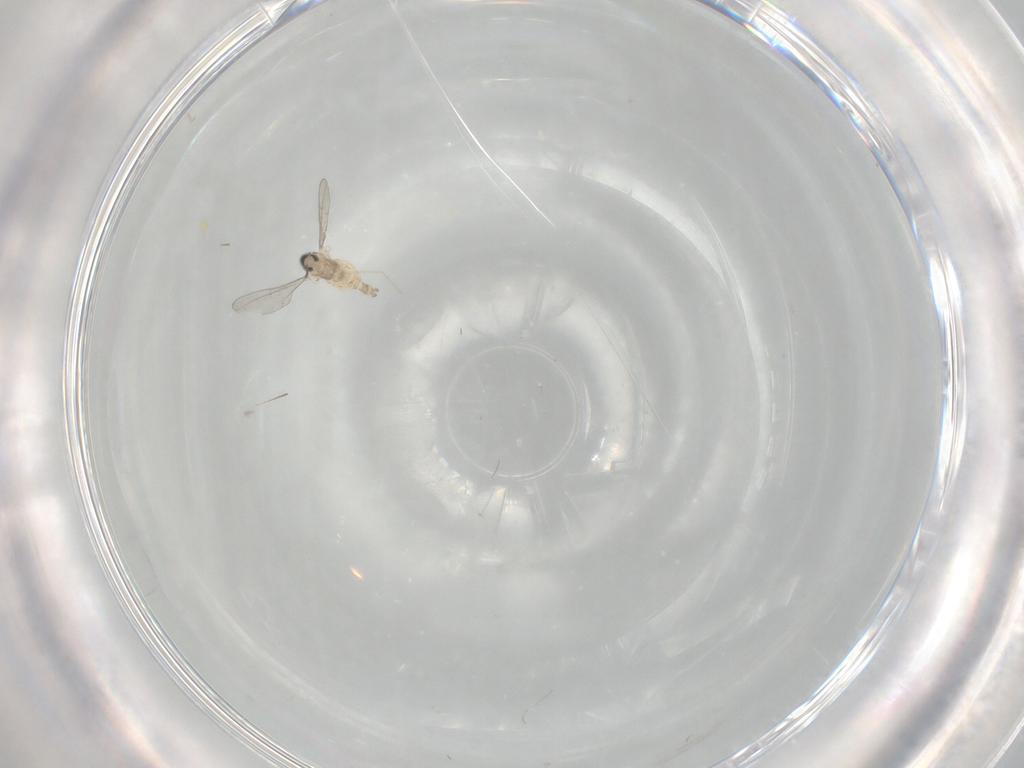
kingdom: Animalia
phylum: Arthropoda
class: Insecta
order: Diptera
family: Cecidomyiidae
